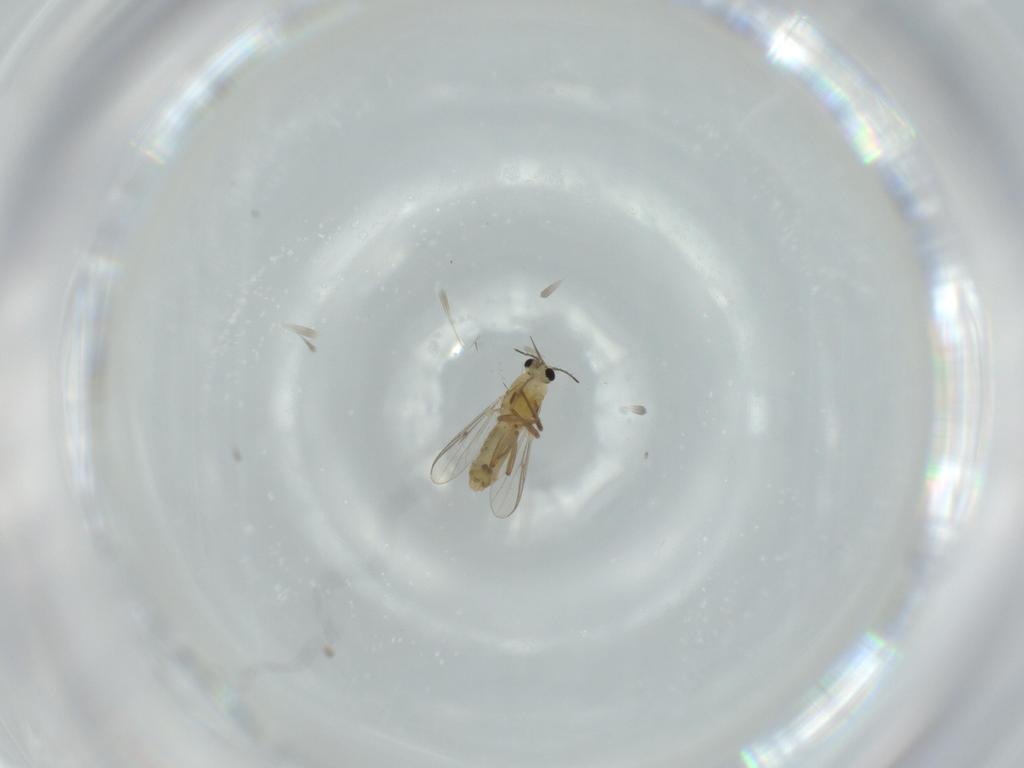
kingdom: Animalia
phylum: Arthropoda
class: Insecta
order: Diptera
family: Chironomidae
